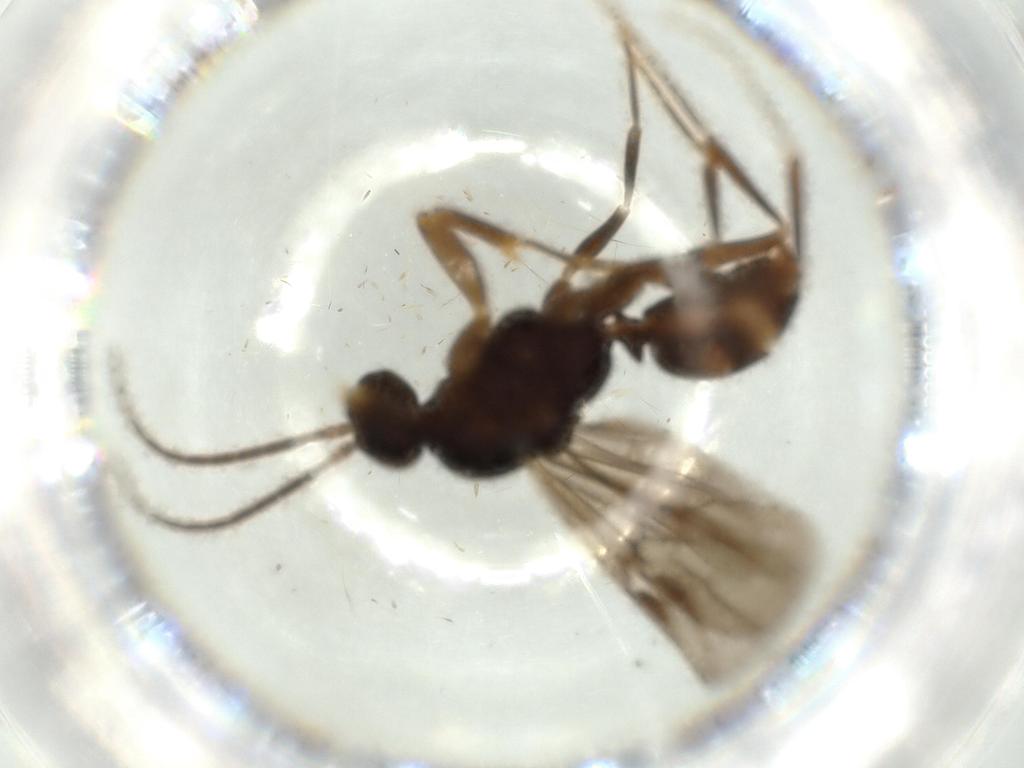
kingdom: Animalia
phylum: Arthropoda
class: Insecta
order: Hymenoptera
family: Formicidae
